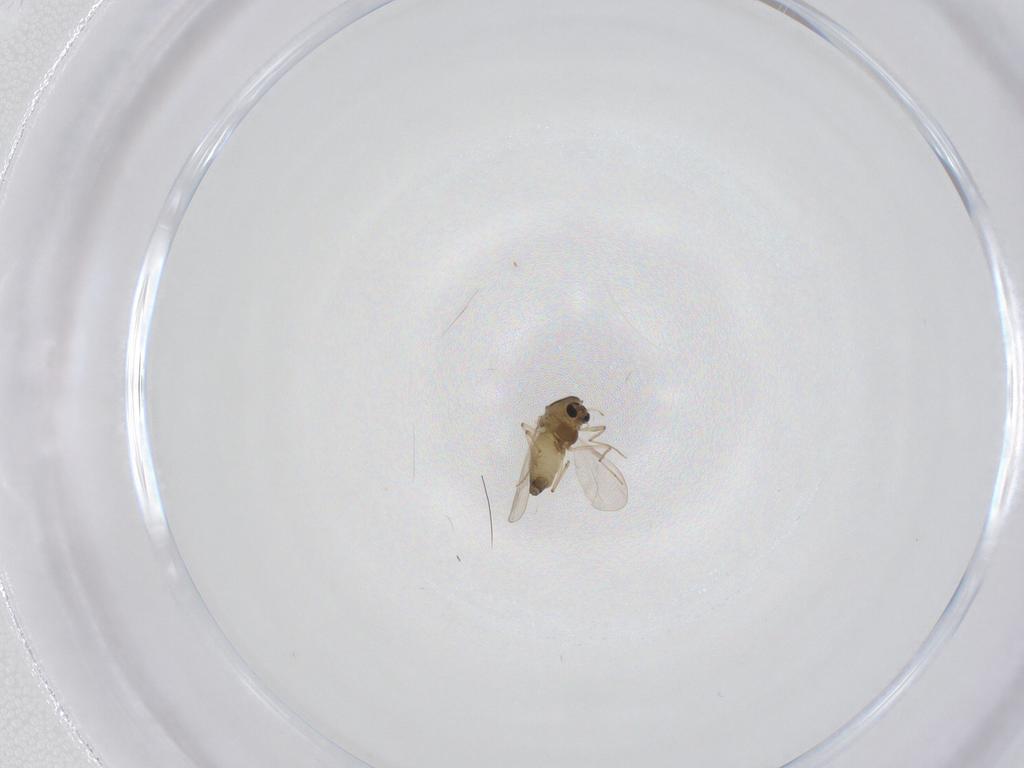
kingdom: Animalia
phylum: Arthropoda
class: Insecta
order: Diptera
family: Chironomidae
